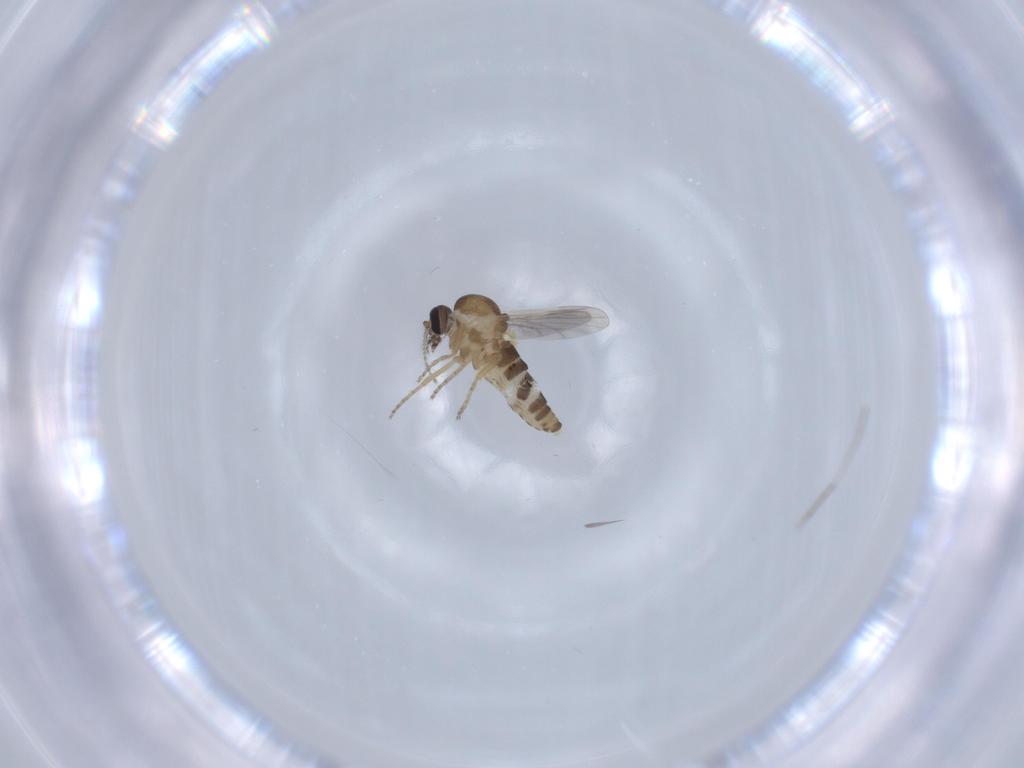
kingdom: Animalia
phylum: Arthropoda
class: Insecta
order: Diptera
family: Ceratopogonidae
